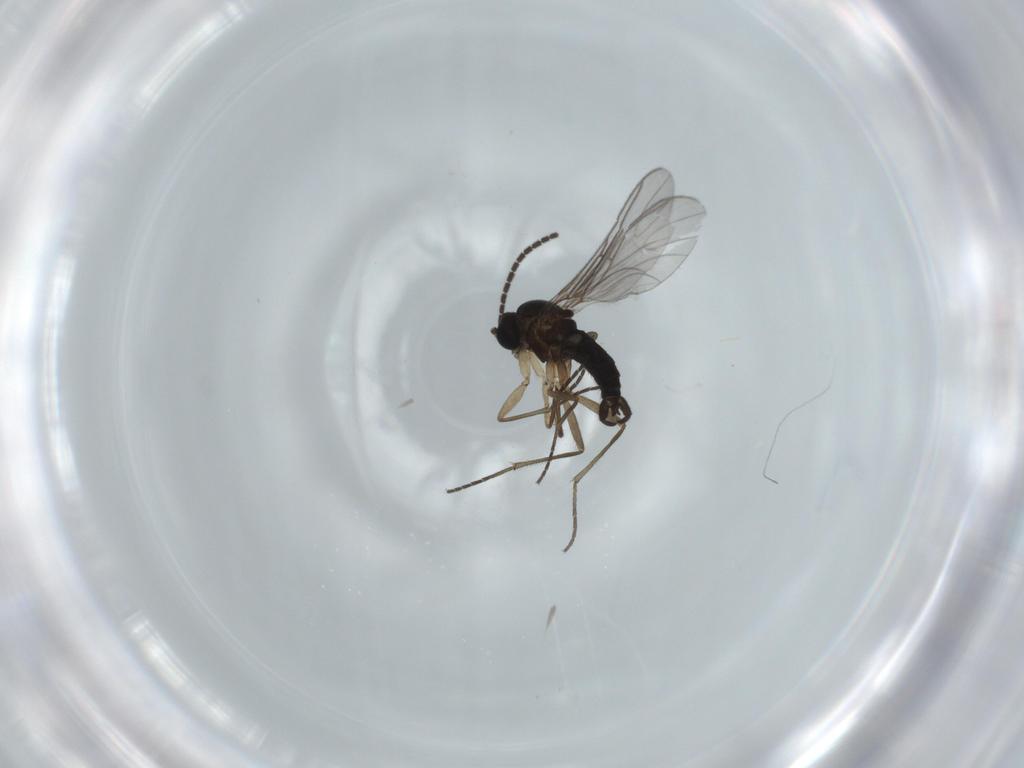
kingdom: Animalia
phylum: Arthropoda
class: Insecta
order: Diptera
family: Sciaridae
